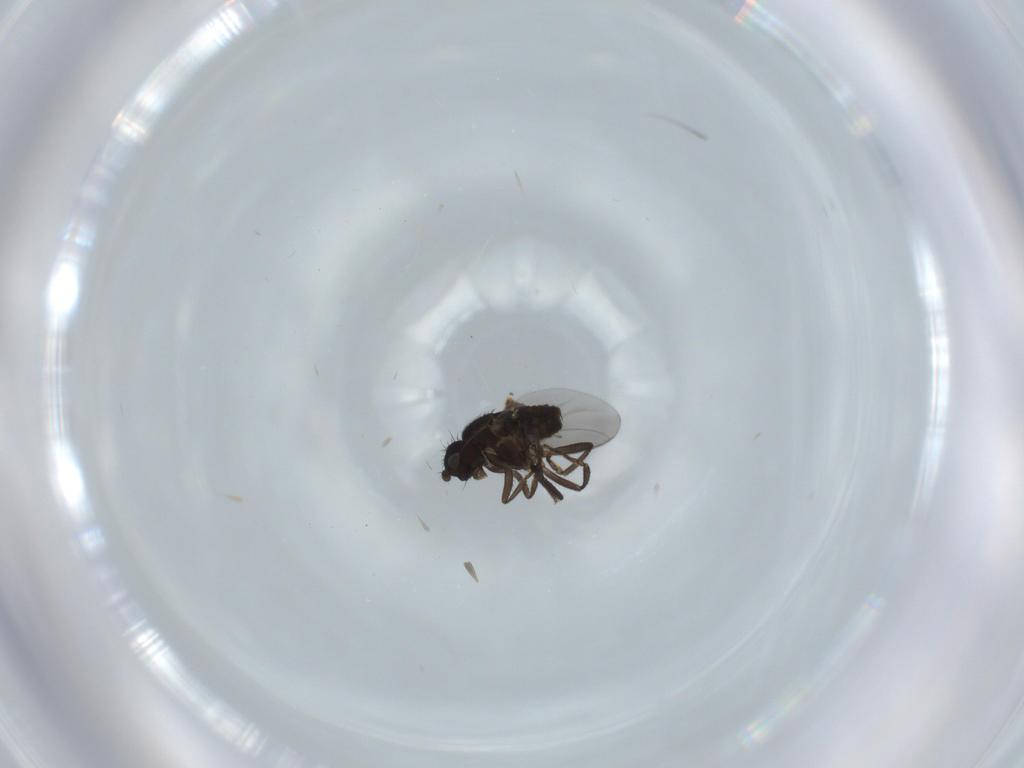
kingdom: Animalia
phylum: Arthropoda
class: Insecta
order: Diptera
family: Sphaeroceridae
